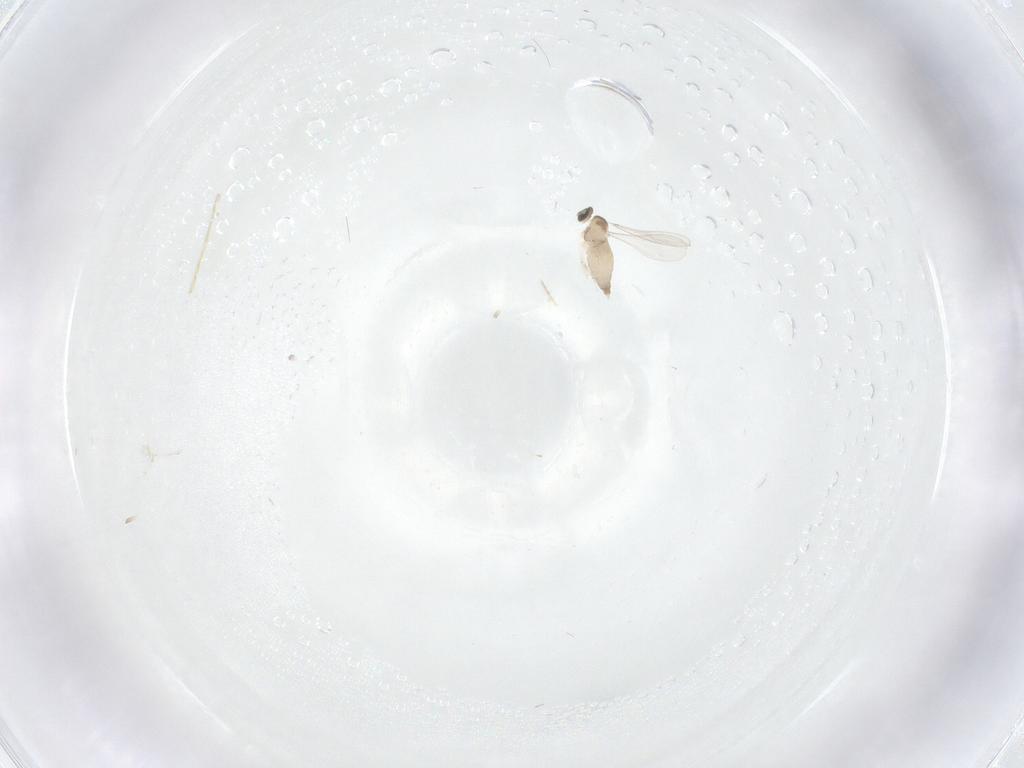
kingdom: Animalia
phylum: Arthropoda
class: Insecta
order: Diptera
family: Cecidomyiidae
